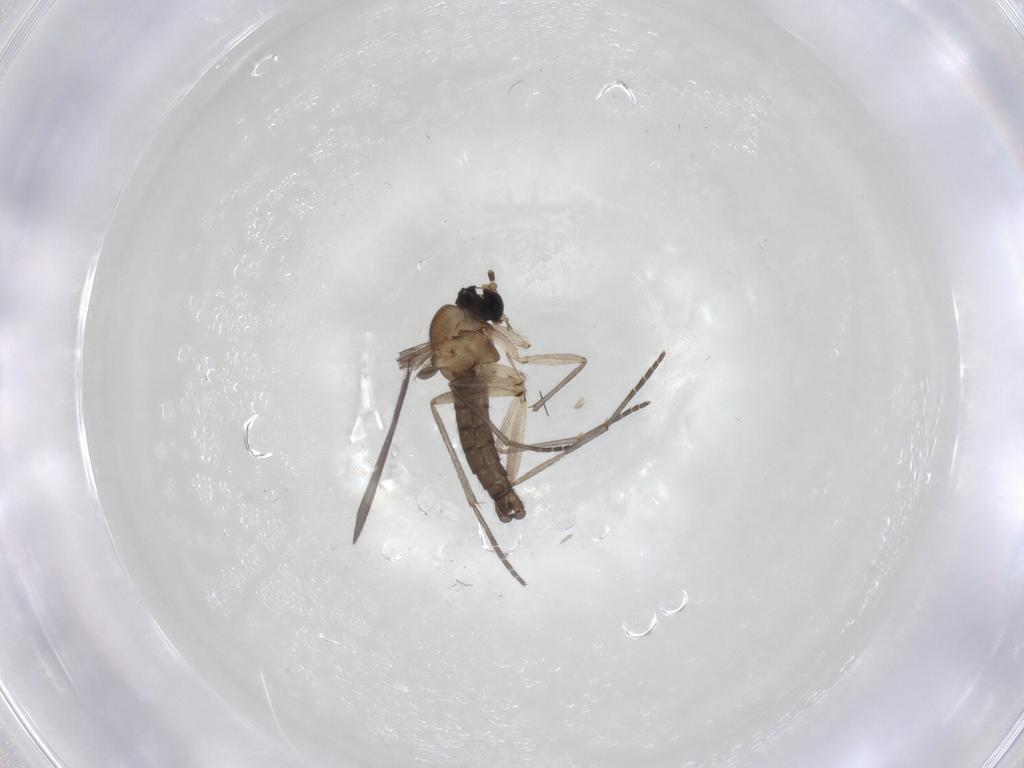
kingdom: Animalia
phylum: Arthropoda
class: Insecta
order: Diptera
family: Sciaridae
